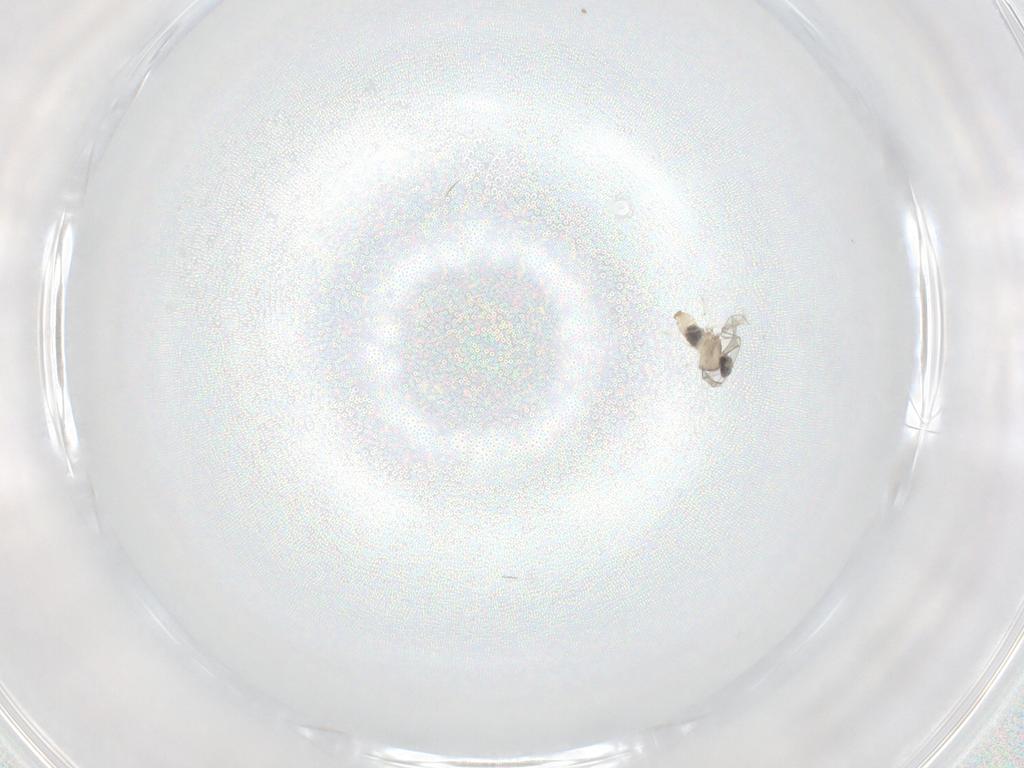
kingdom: Animalia
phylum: Arthropoda
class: Insecta
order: Diptera
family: Cecidomyiidae
